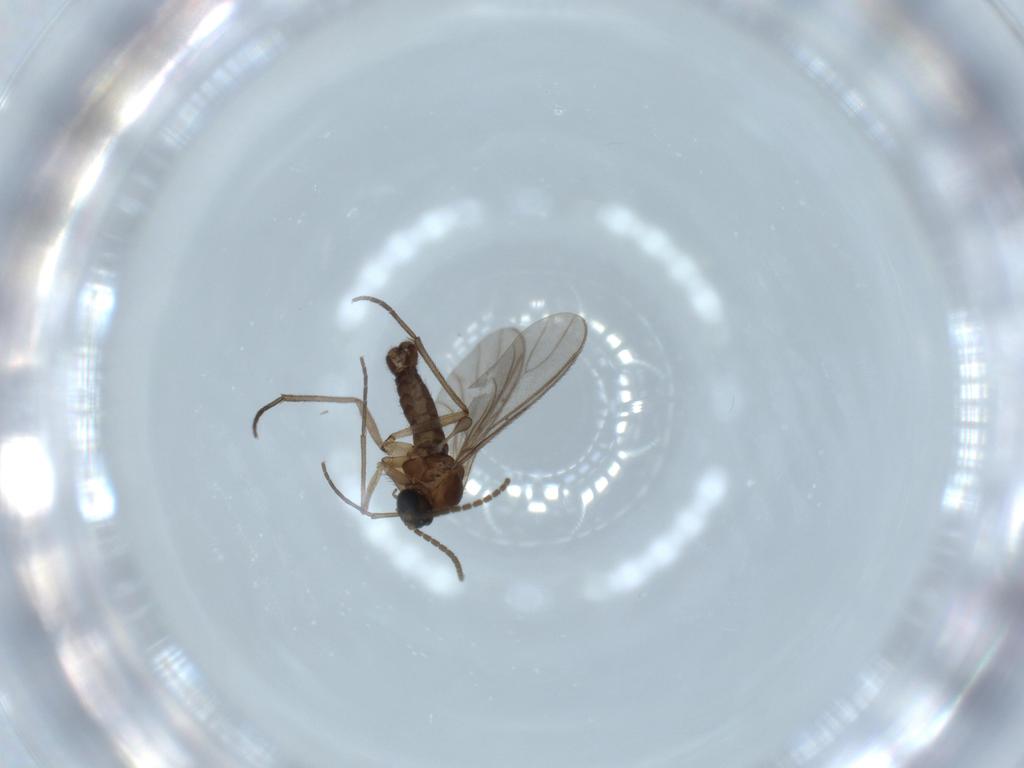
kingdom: Animalia
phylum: Arthropoda
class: Insecta
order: Diptera
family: Sciaridae
